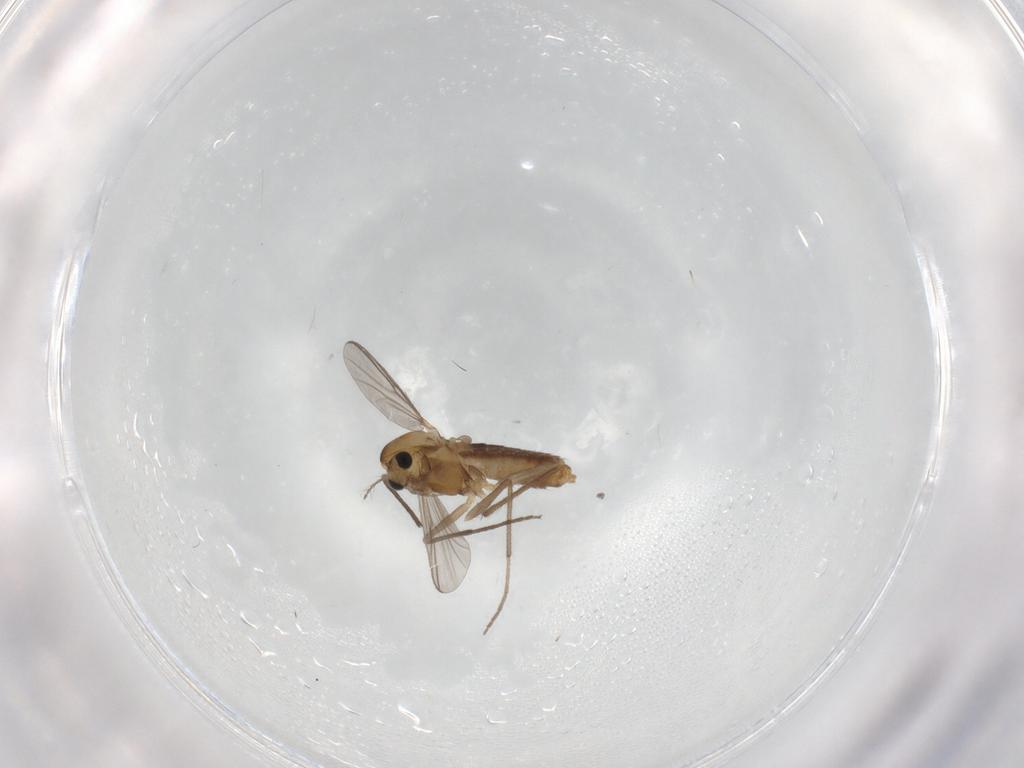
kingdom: Animalia
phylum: Arthropoda
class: Insecta
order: Diptera
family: Chironomidae
